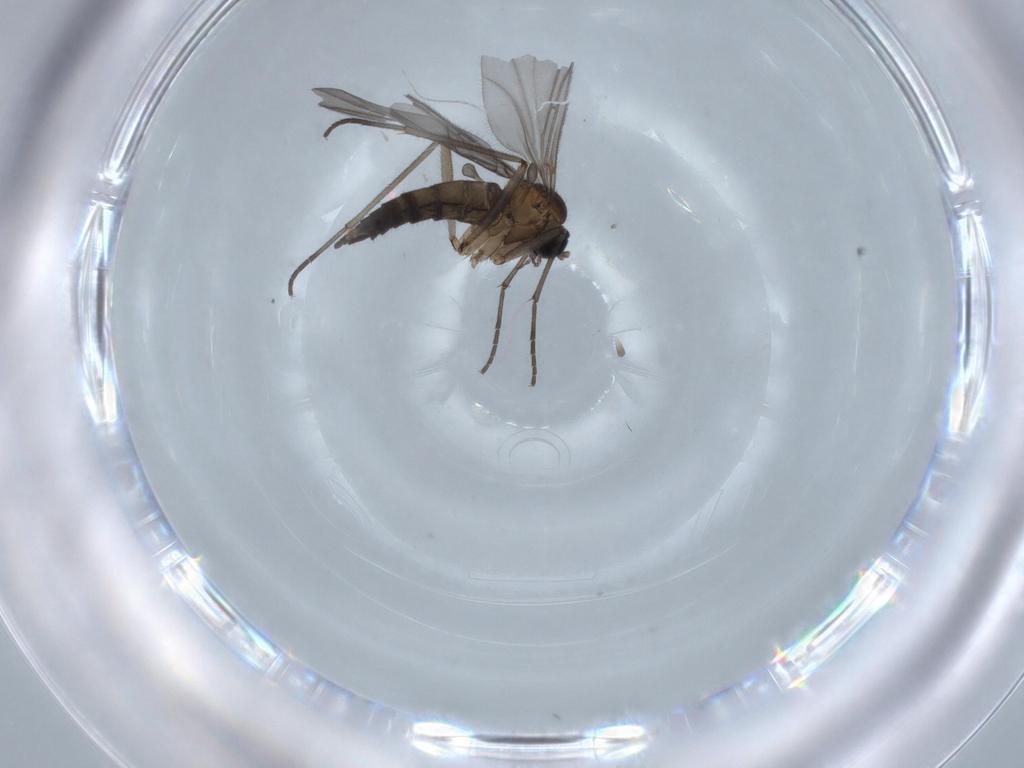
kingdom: Animalia
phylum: Arthropoda
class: Insecta
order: Diptera
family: Sciaridae
